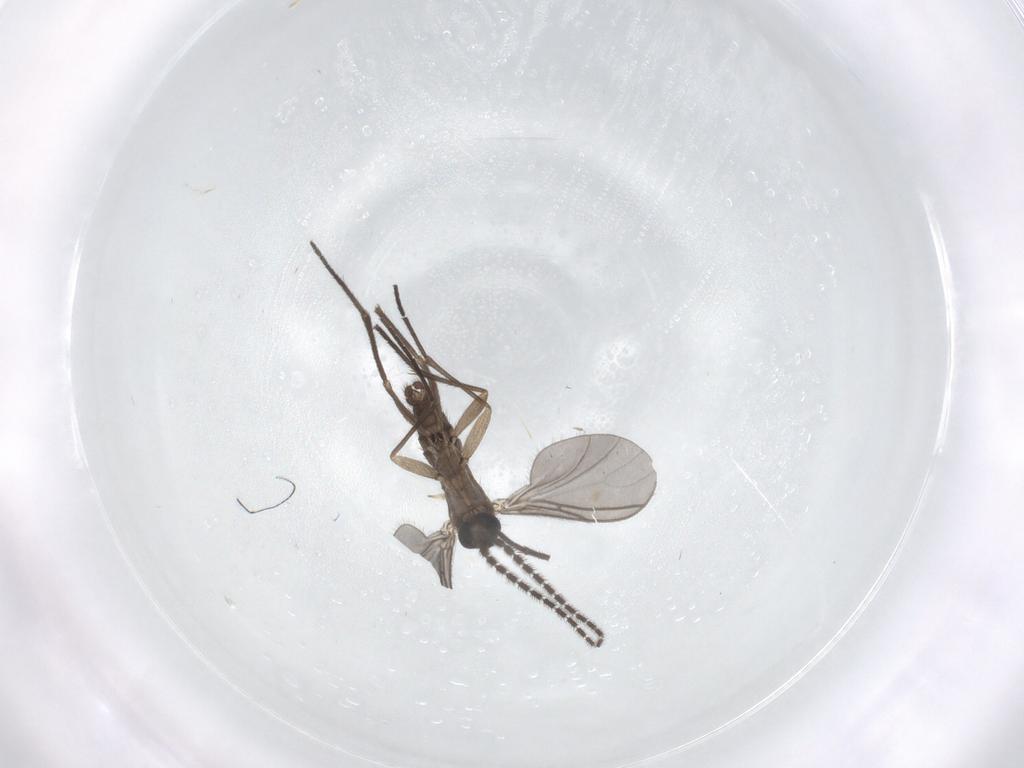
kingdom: Animalia
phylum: Arthropoda
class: Insecta
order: Diptera
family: Sciaridae
